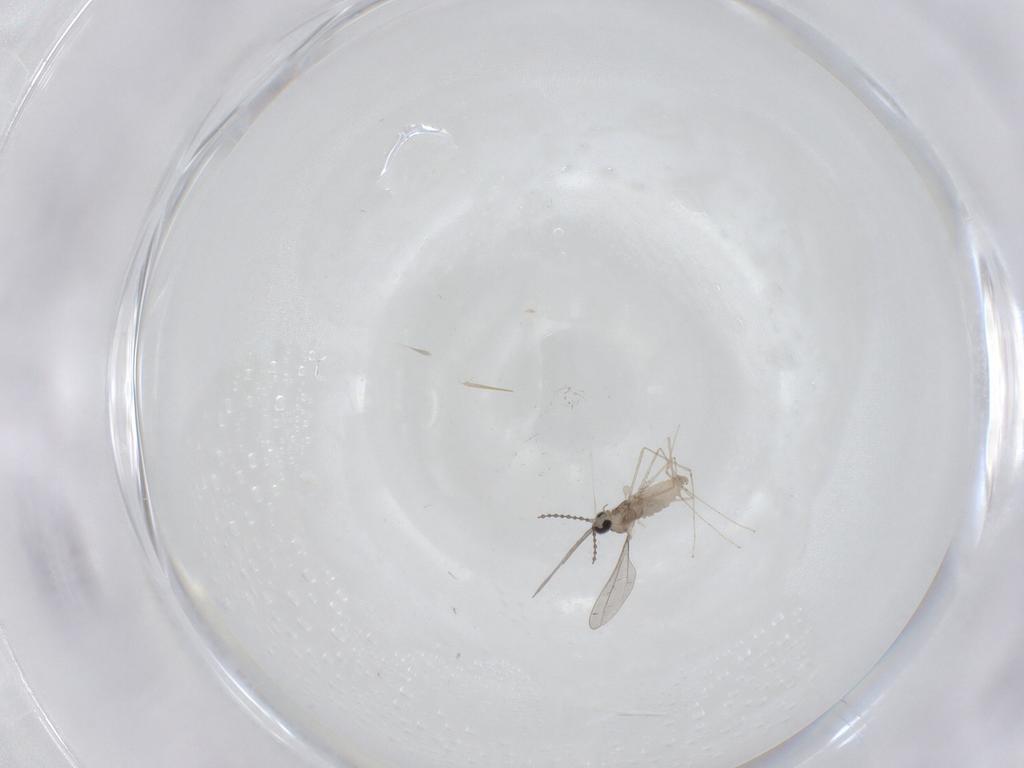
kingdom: Animalia
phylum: Arthropoda
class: Insecta
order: Diptera
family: Cecidomyiidae
